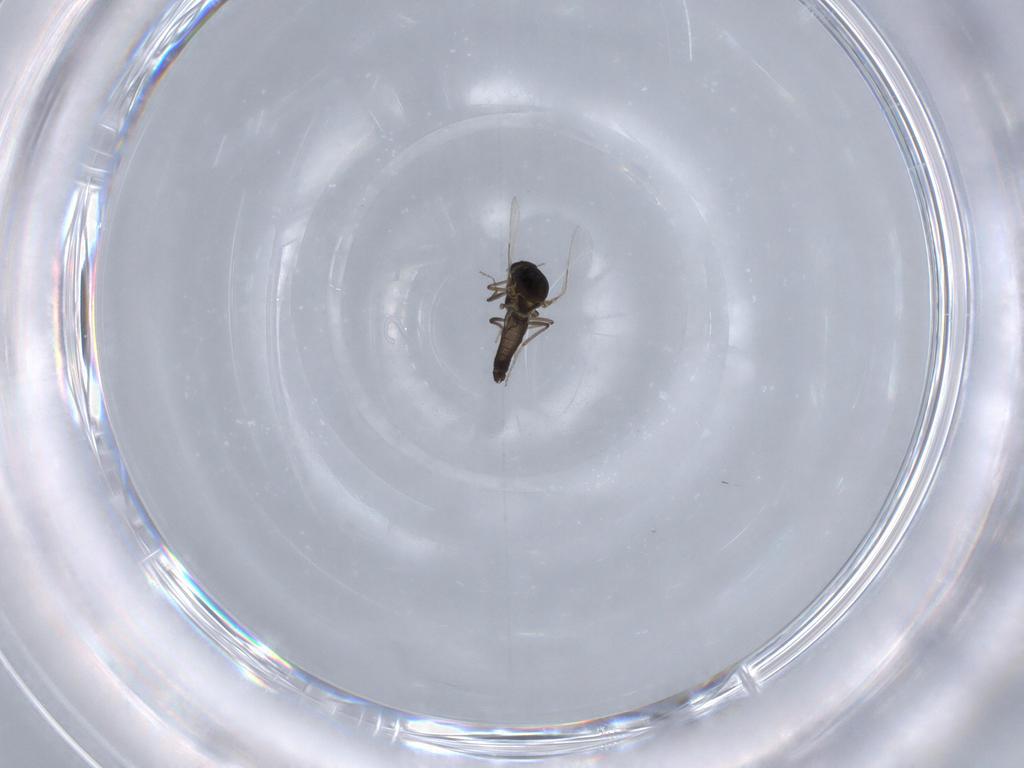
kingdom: Animalia
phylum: Arthropoda
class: Insecta
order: Diptera
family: Ceratopogonidae
